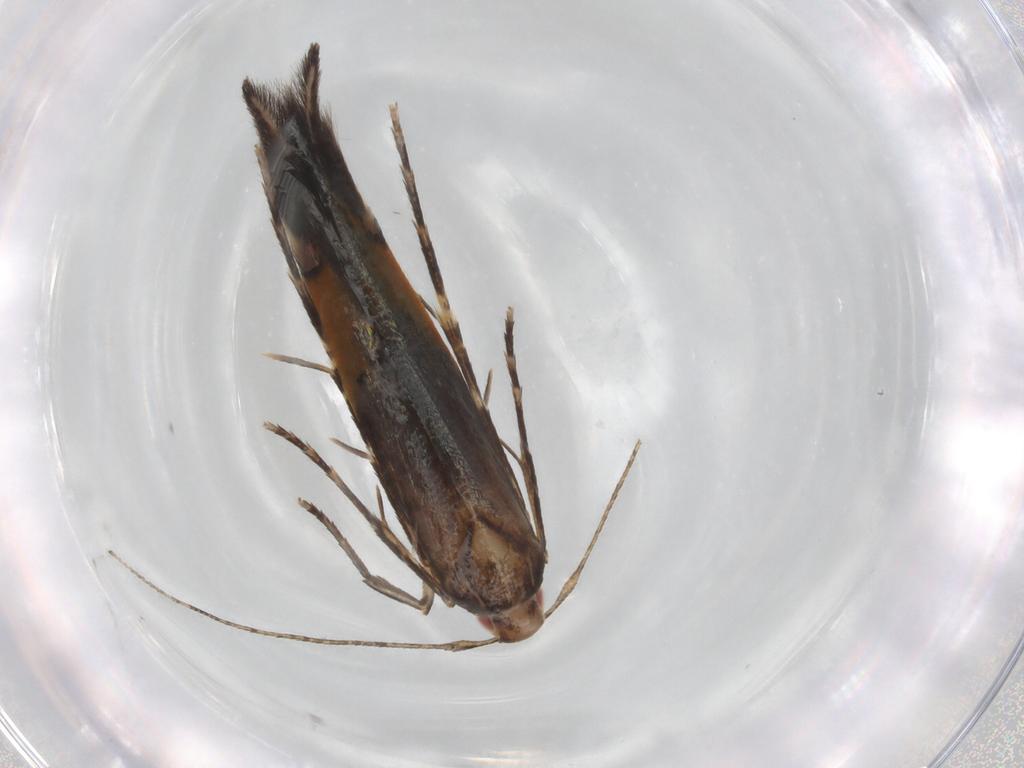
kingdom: Animalia
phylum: Arthropoda
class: Insecta
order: Lepidoptera
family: Cosmopterigidae
